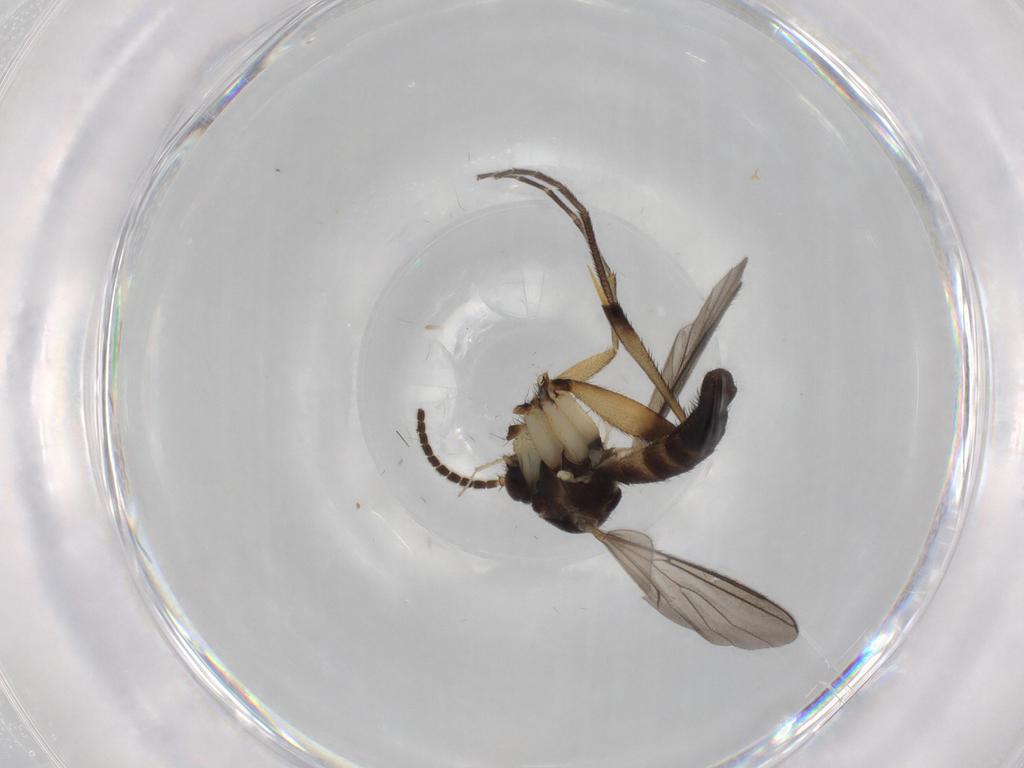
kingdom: Animalia
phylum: Arthropoda
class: Insecta
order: Diptera
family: Mycetophilidae
